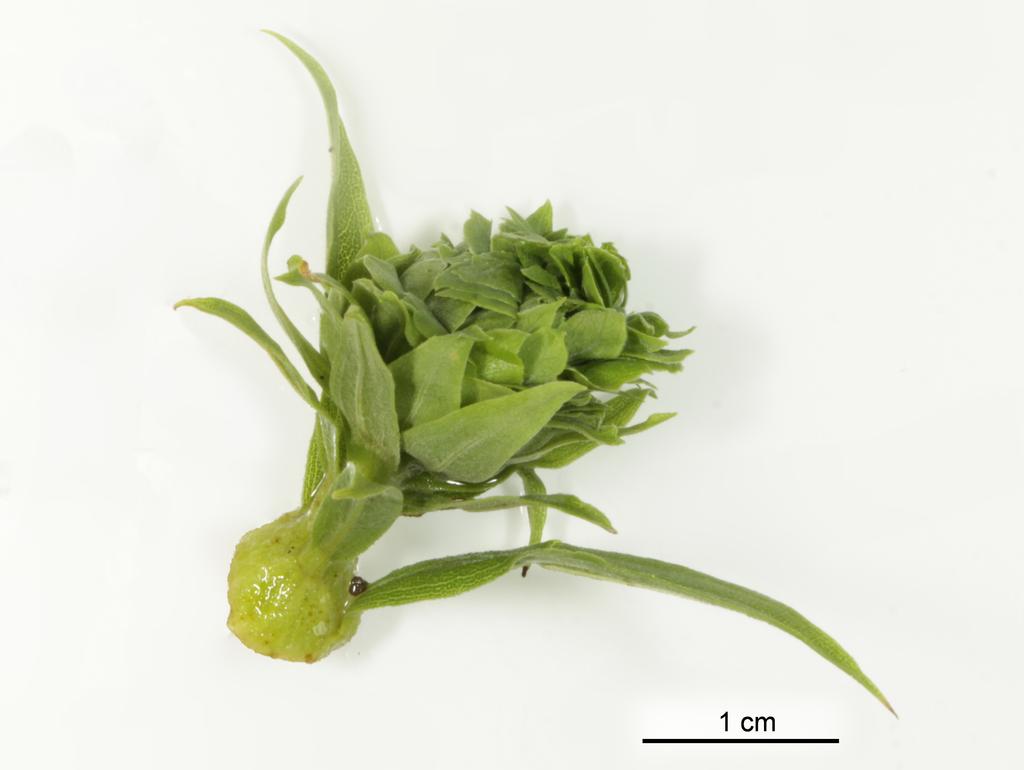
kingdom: Animalia
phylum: Arthropoda
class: Insecta
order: Hymenoptera
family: Torymidae
